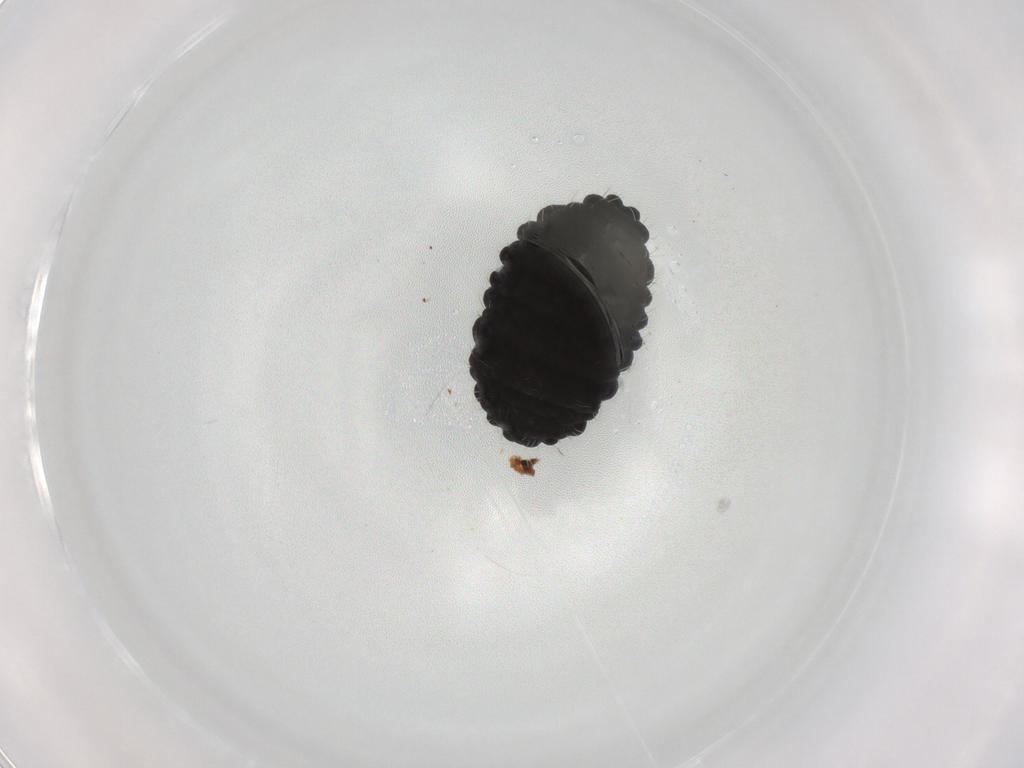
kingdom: Animalia
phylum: Arthropoda
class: Collembola
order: Poduromorpha
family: Neanuridae
